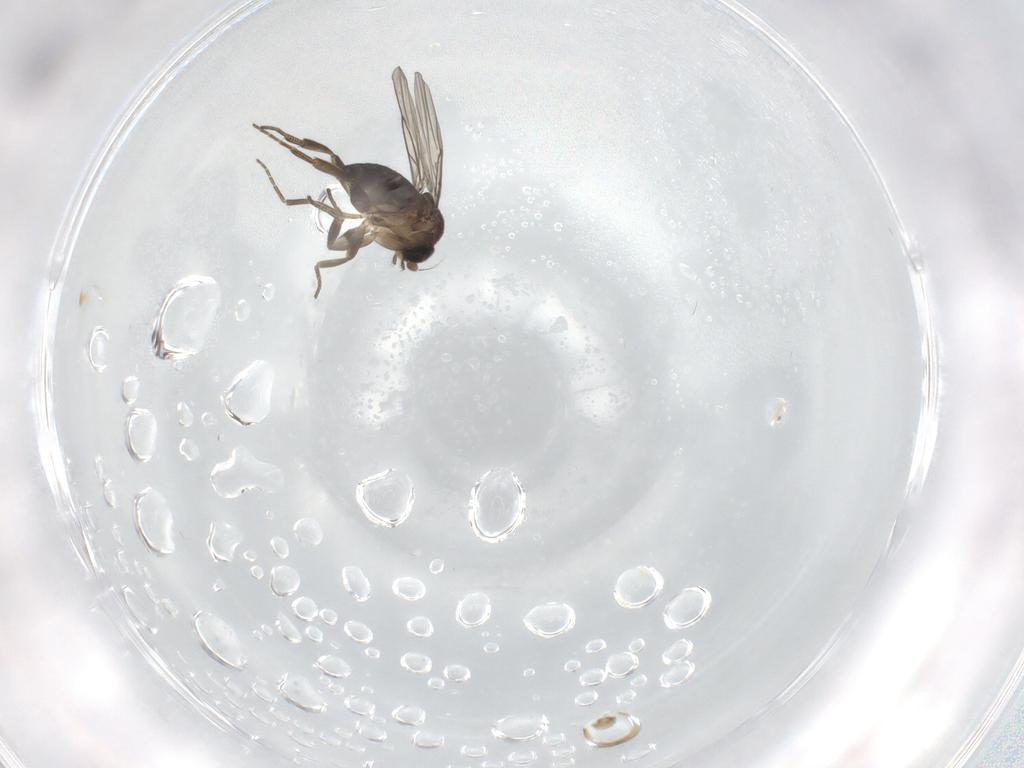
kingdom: Animalia
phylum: Arthropoda
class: Insecta
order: Diptera
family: Phoridae
